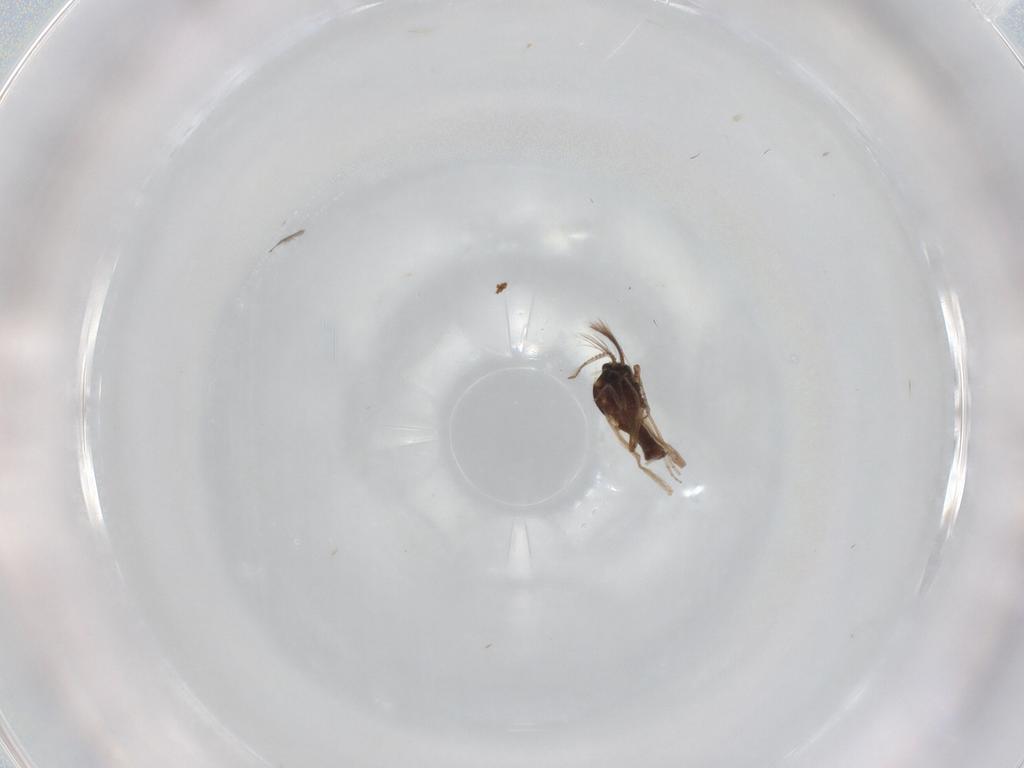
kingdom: Animalia
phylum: Arthropoda
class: Insecta
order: Diptera
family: Ceratopogonidae
